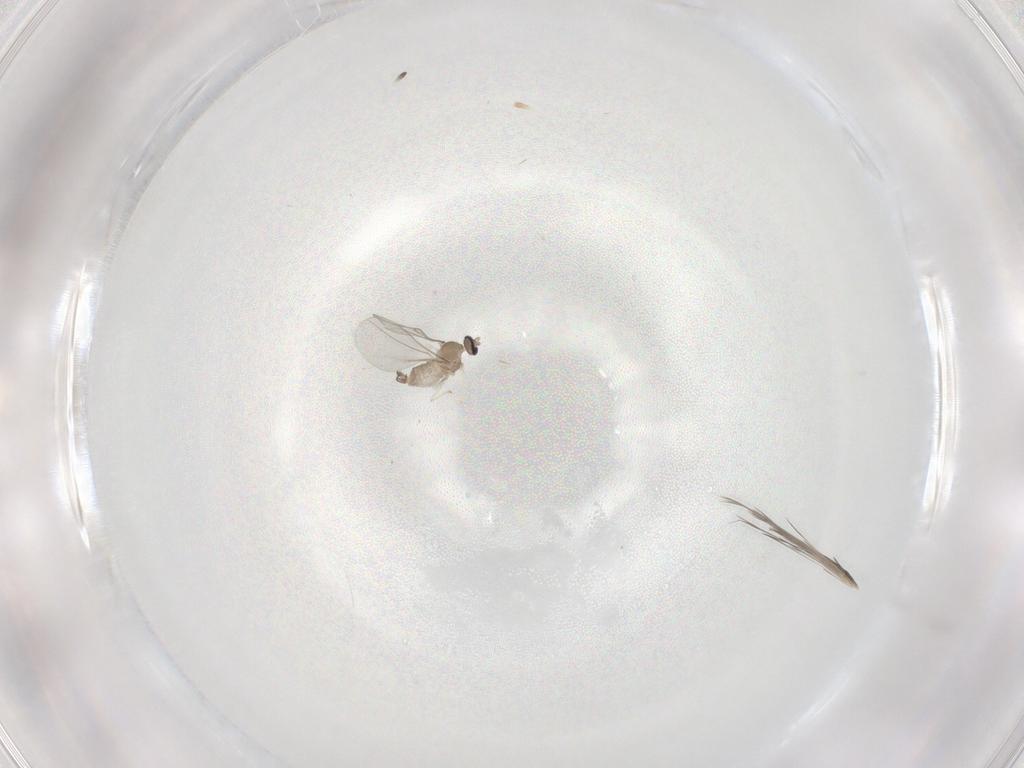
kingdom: Animalia
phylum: Arthropoda
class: Insecta
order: Diptera
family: Cecidomyiidae
